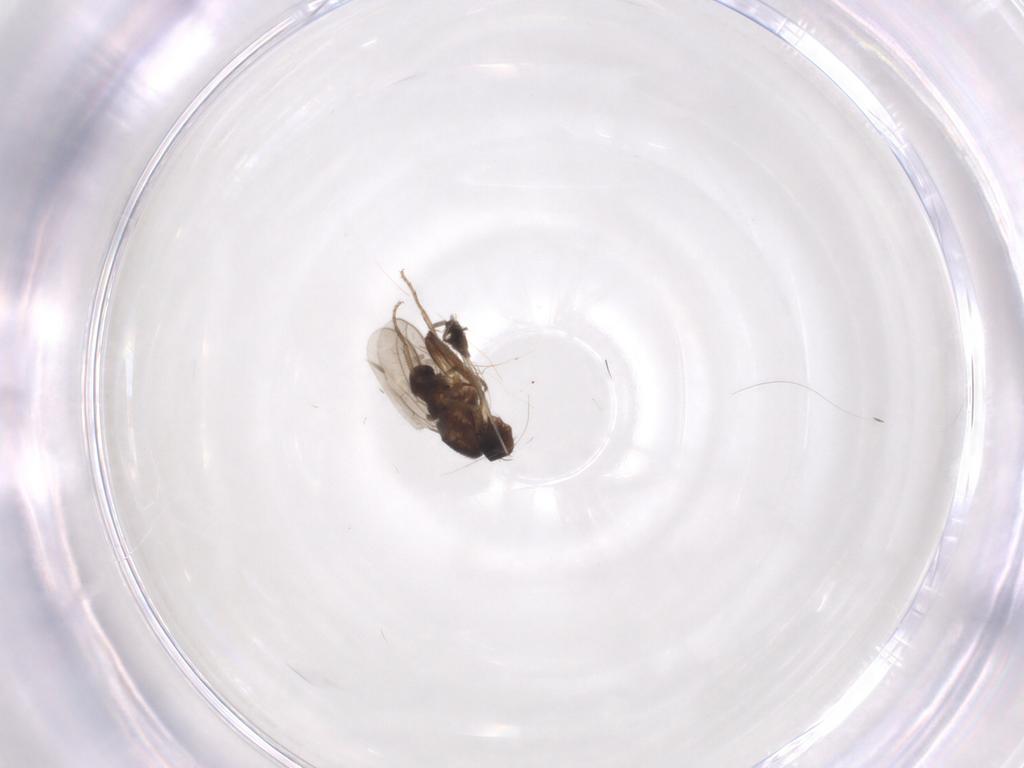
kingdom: Animalia
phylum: Arthropoda
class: Insecta
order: Diptera
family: Sphaeroceridae
